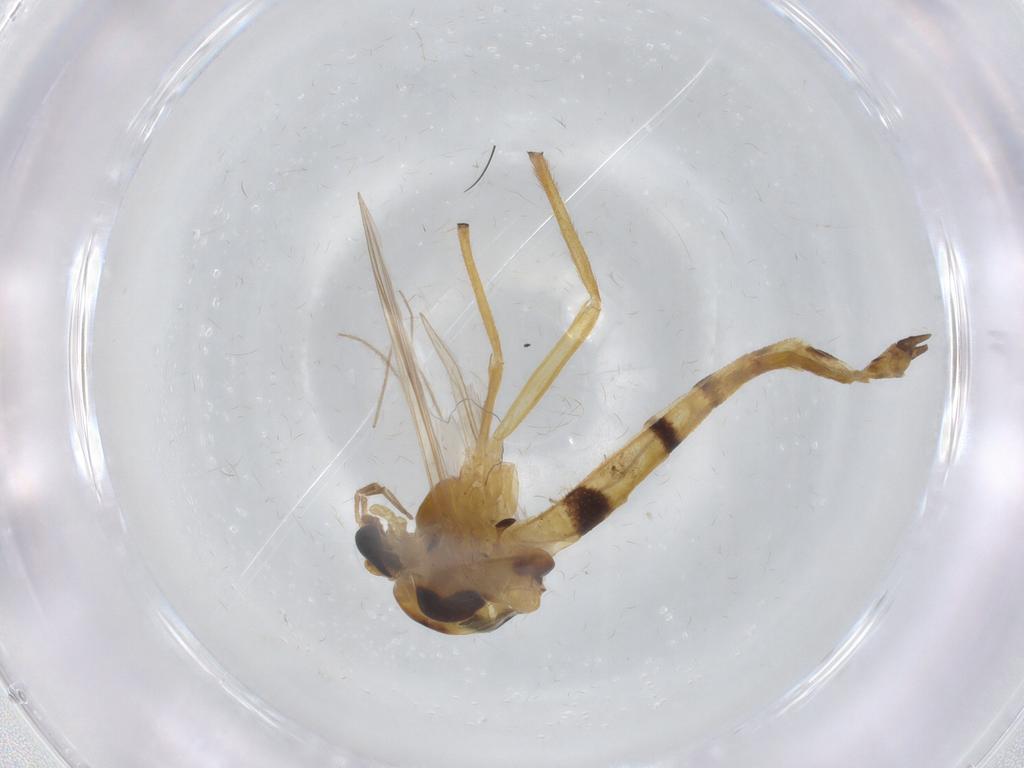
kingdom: Animalia
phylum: Arthropoda
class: Insecta
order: Diptera
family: Chironomidae
